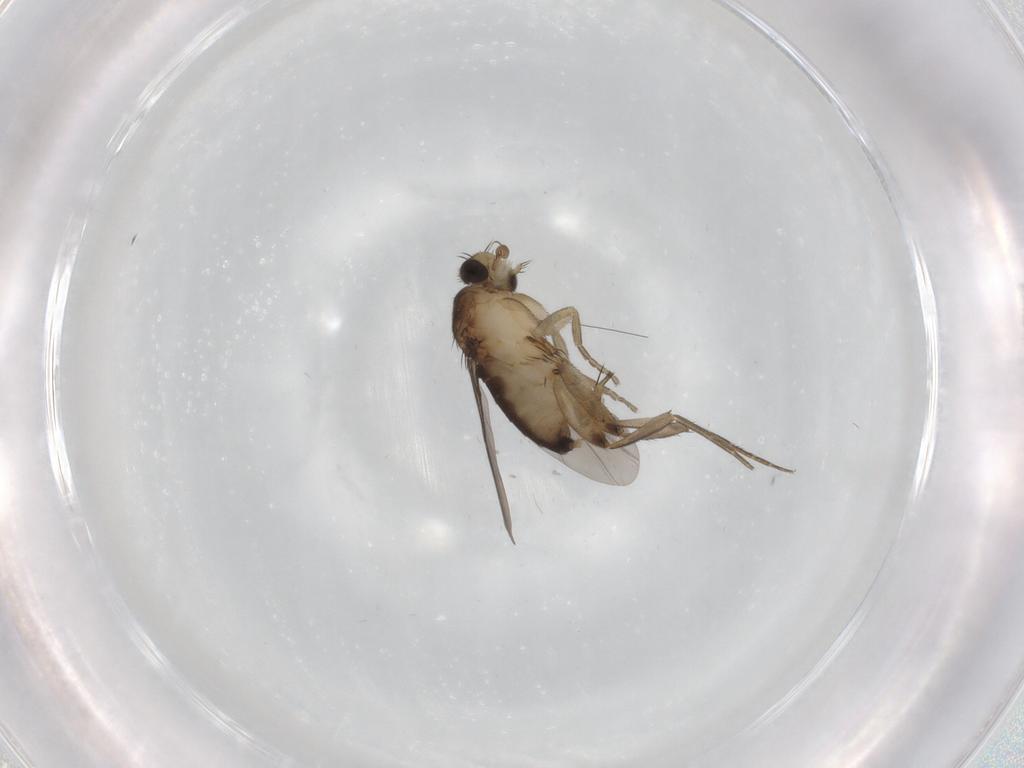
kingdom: Animalia
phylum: Arthropoda
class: Insecta
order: Diptera
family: Phoridae
